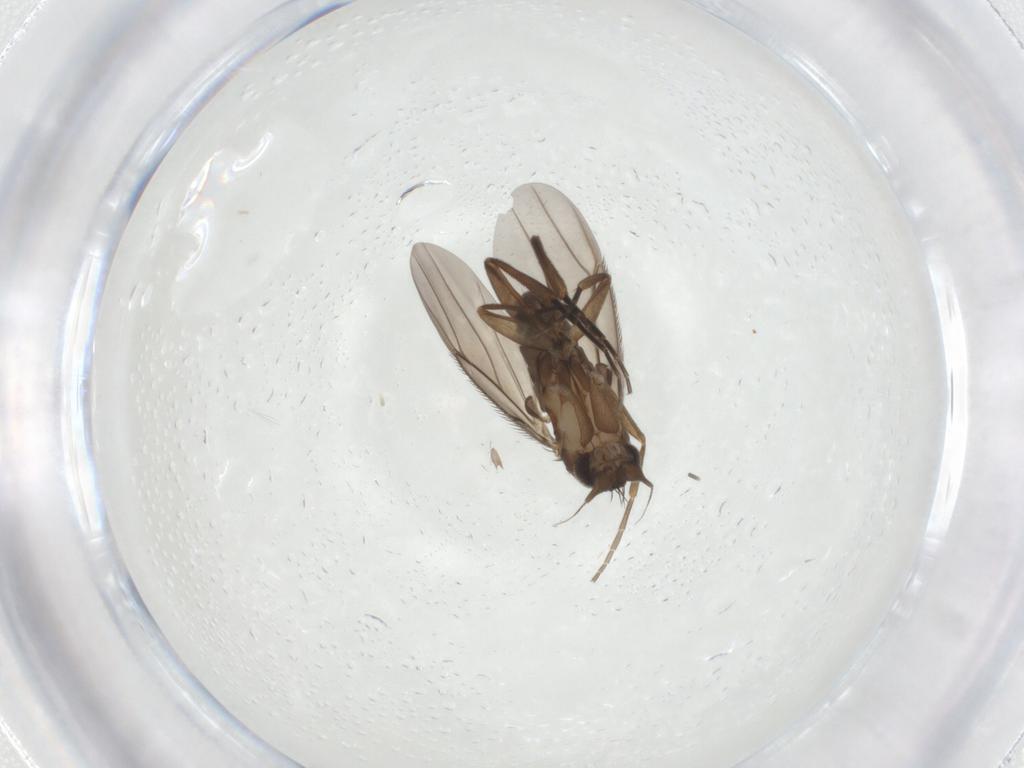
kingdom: Animalia
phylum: Arthropoda
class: Insecta
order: Diptera
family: Phoridae
